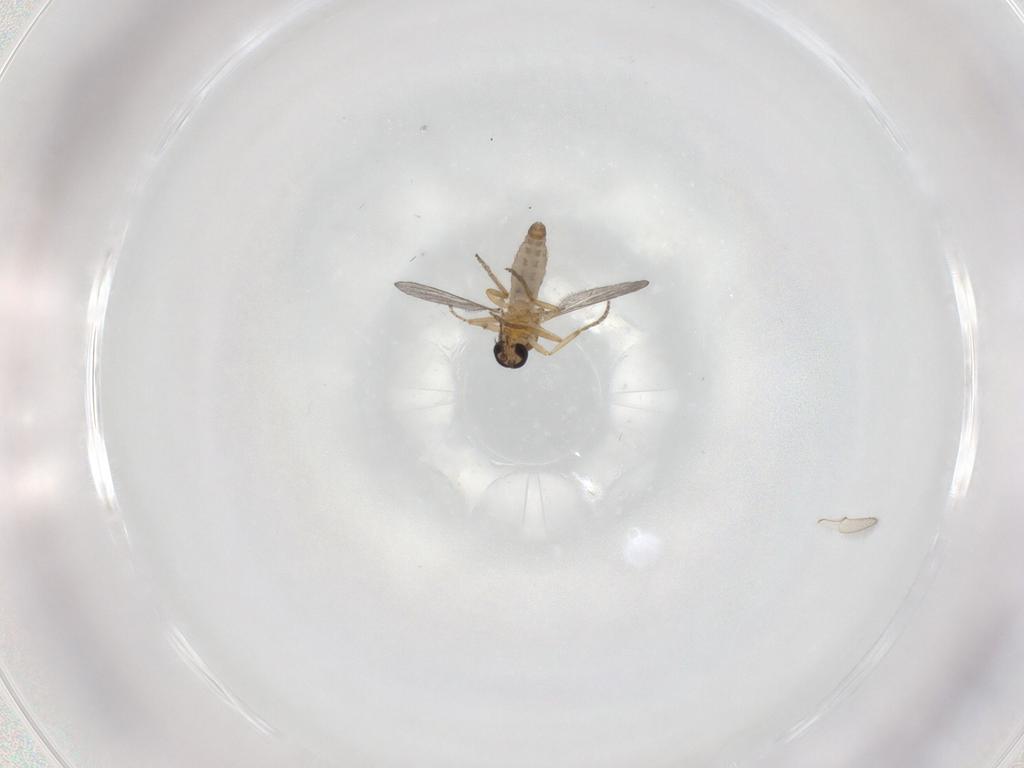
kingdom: Animalia
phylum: Arthropoda
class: Insecta
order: Diptera
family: Ceratopogonidae
